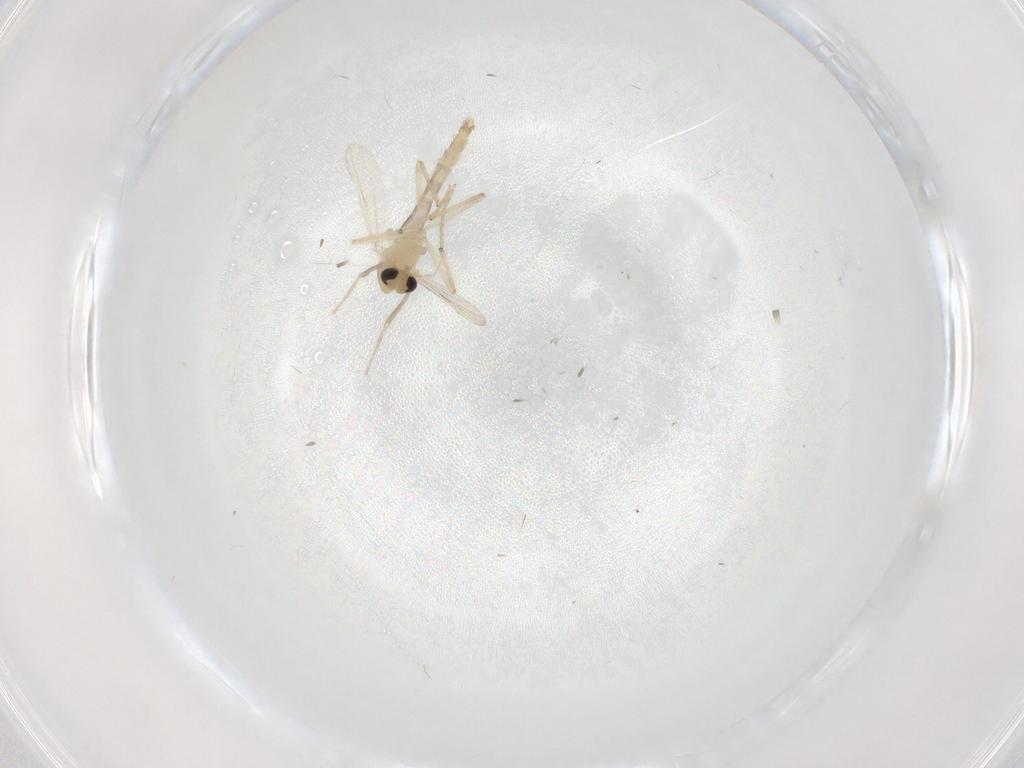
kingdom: Animalia
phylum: Arthropoda
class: Insecta
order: Diptera
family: Chironomidae
